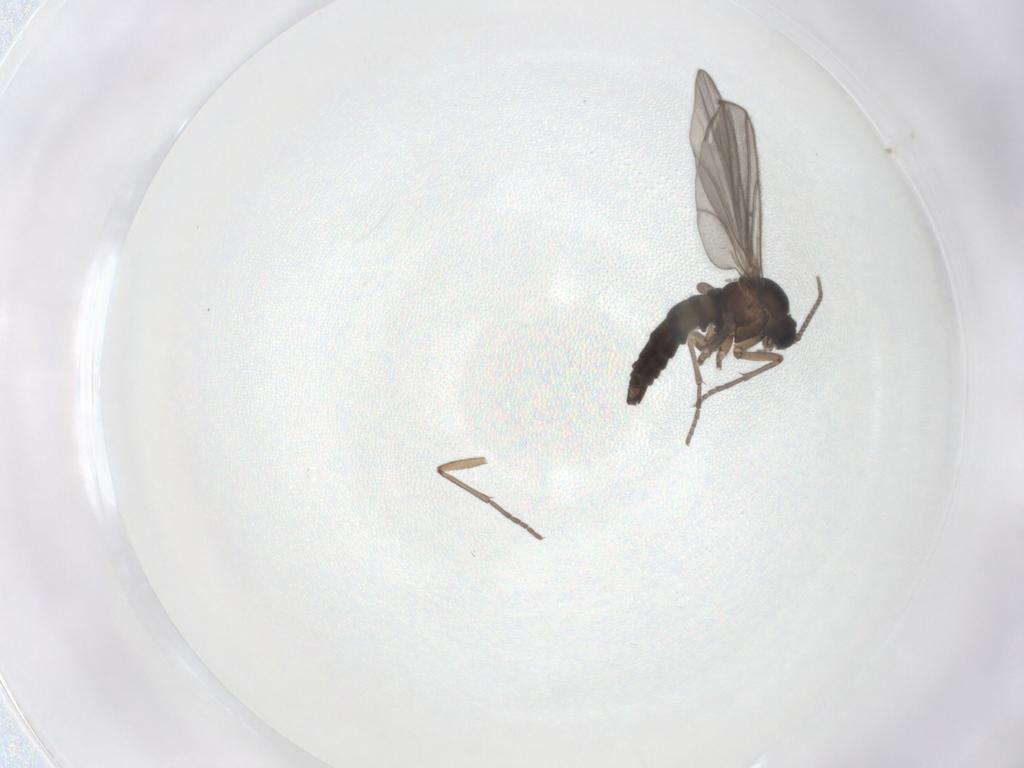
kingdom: Animalia
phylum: Arthropoda
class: Insecta
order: Diptera
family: Sciaridae
